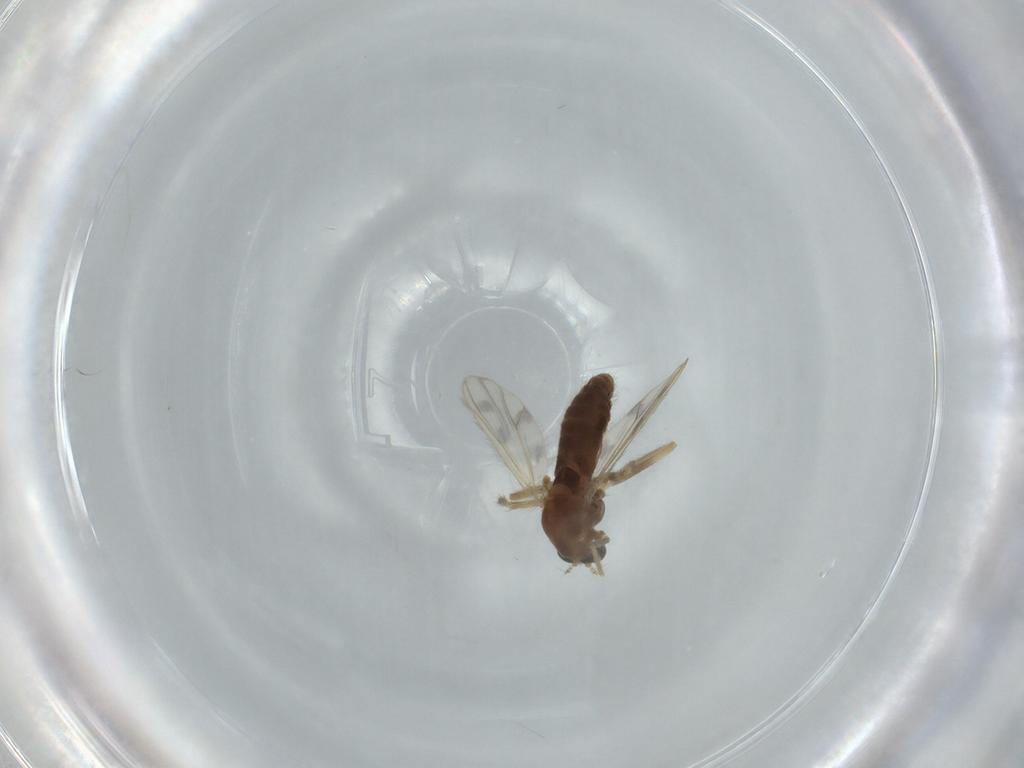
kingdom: Animalia
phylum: Arthropoda
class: Insecta
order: Diptera
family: Chironomidae
